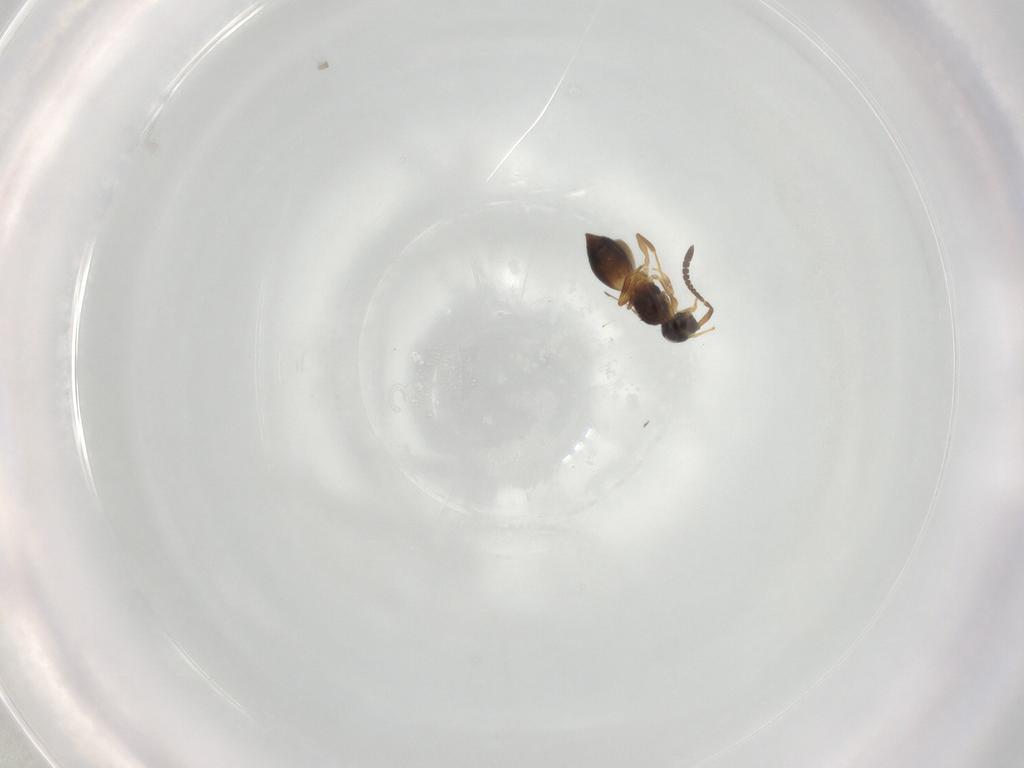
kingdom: Animalia
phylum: Arthropoda
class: Insecta
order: Hymenoptera
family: Megaspilidae
